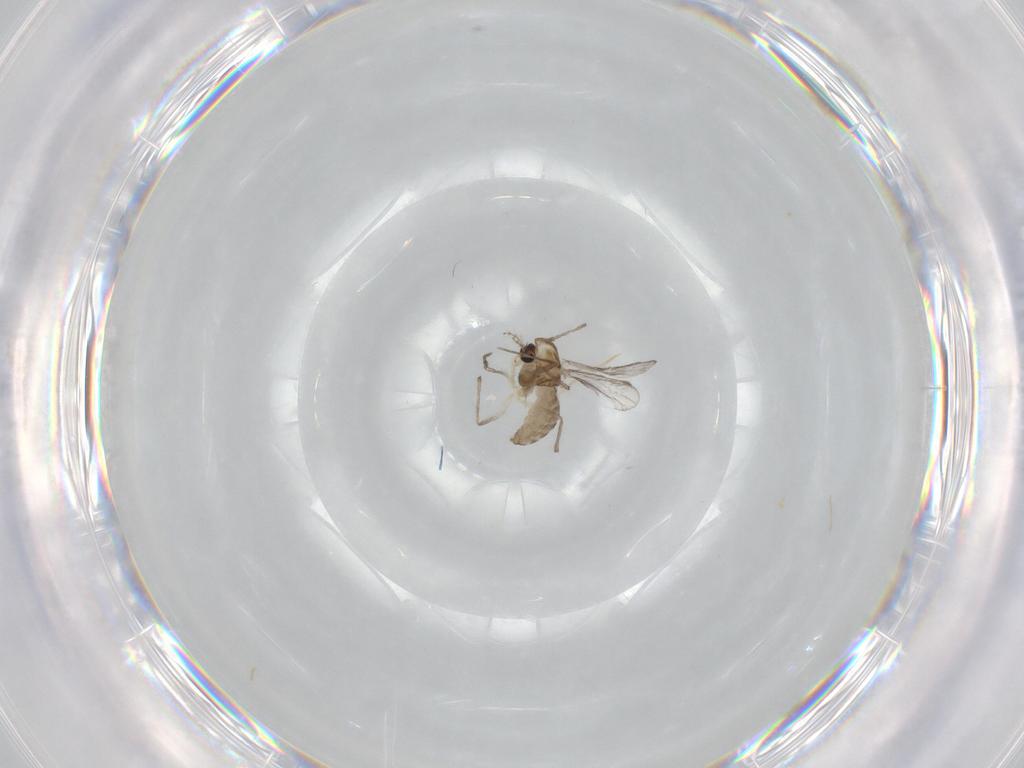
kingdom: Animalia
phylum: Arthropoda
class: Insecta
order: Diptera
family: Chironomidae
